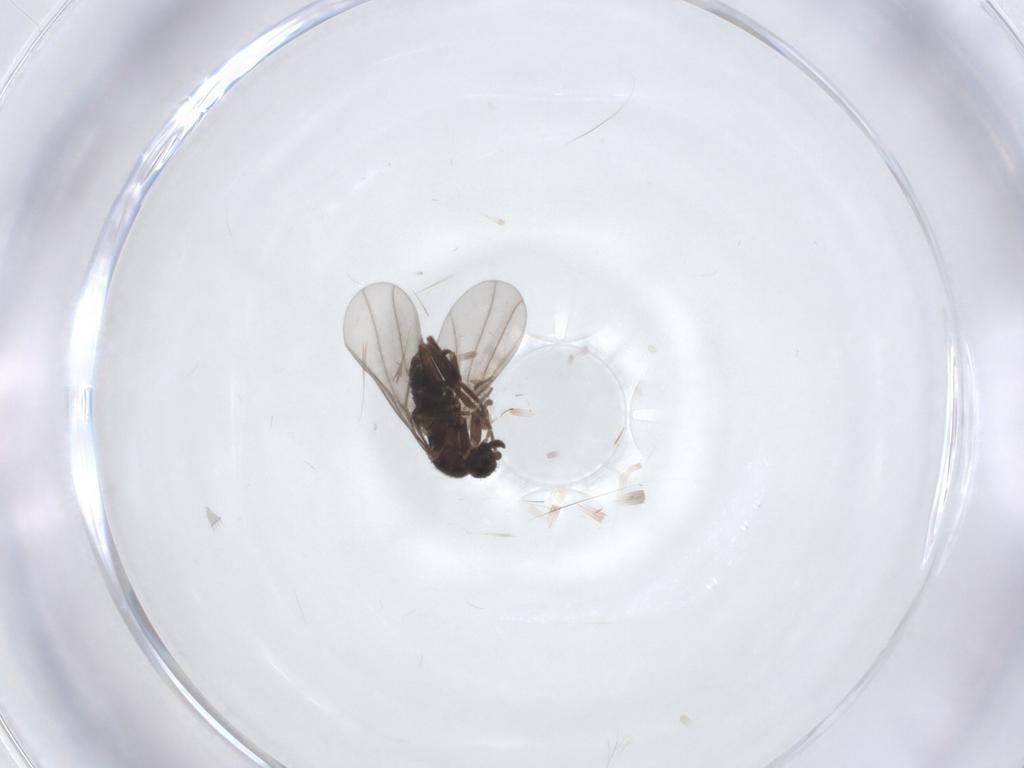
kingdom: Animalia
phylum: Arthropoda
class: Insecta
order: Diptera
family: Phoridae
